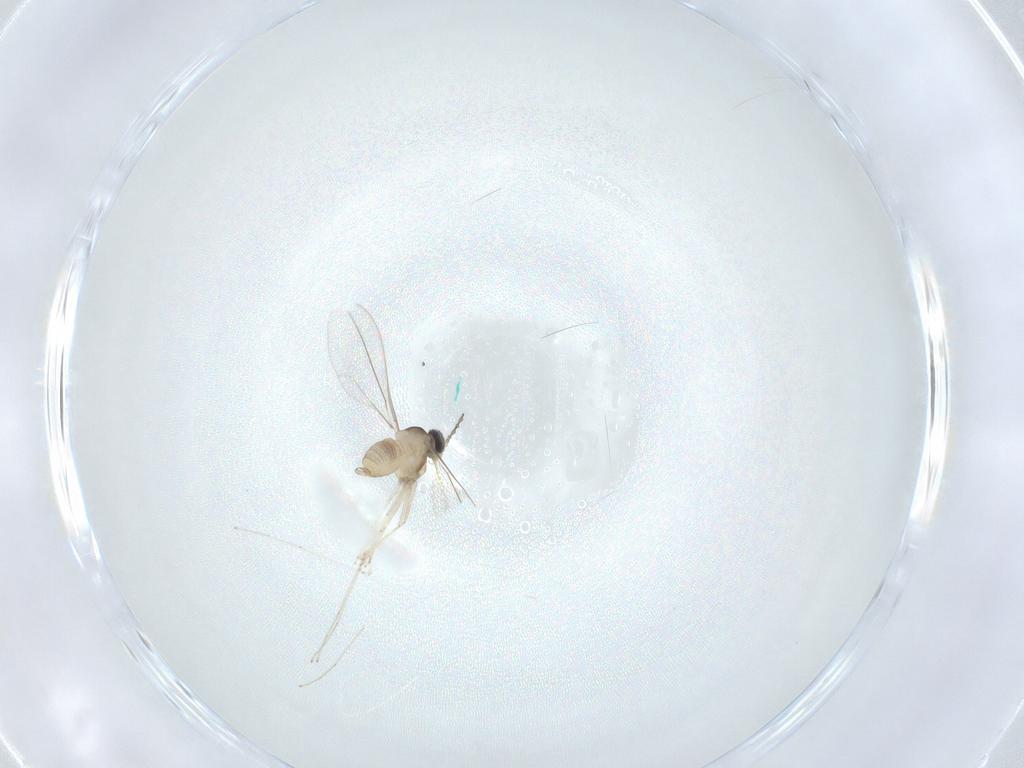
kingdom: Animalia
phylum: Arthropoda
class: Insecta
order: Diptera
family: Cecidomyiidae
